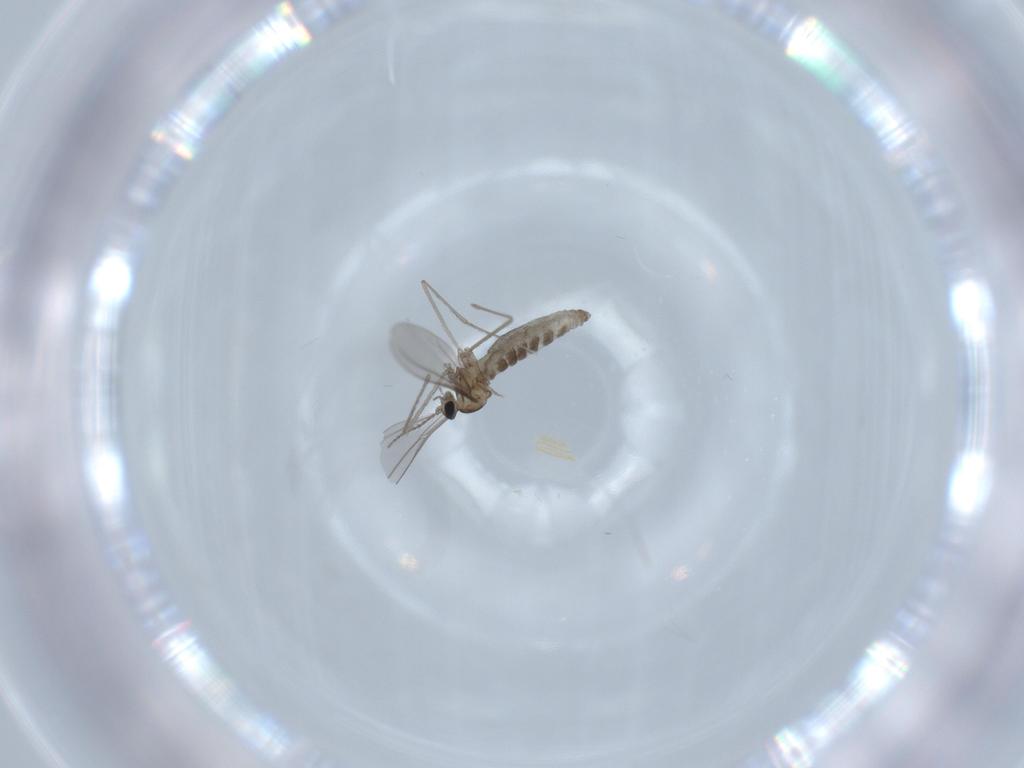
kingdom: Animalia
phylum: Arthropoda
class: Insecta
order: Diptera
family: Cecidomyiidae
